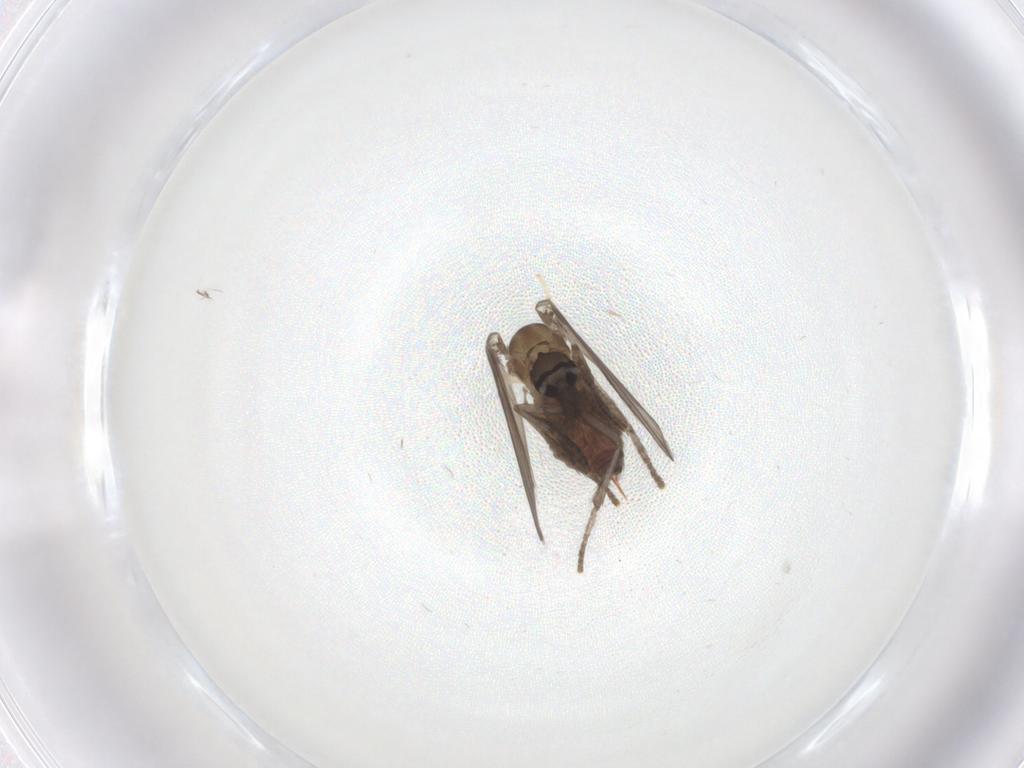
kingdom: Animalia
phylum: Arthropoda
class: Insecta
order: Diptera
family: Psychodidae
